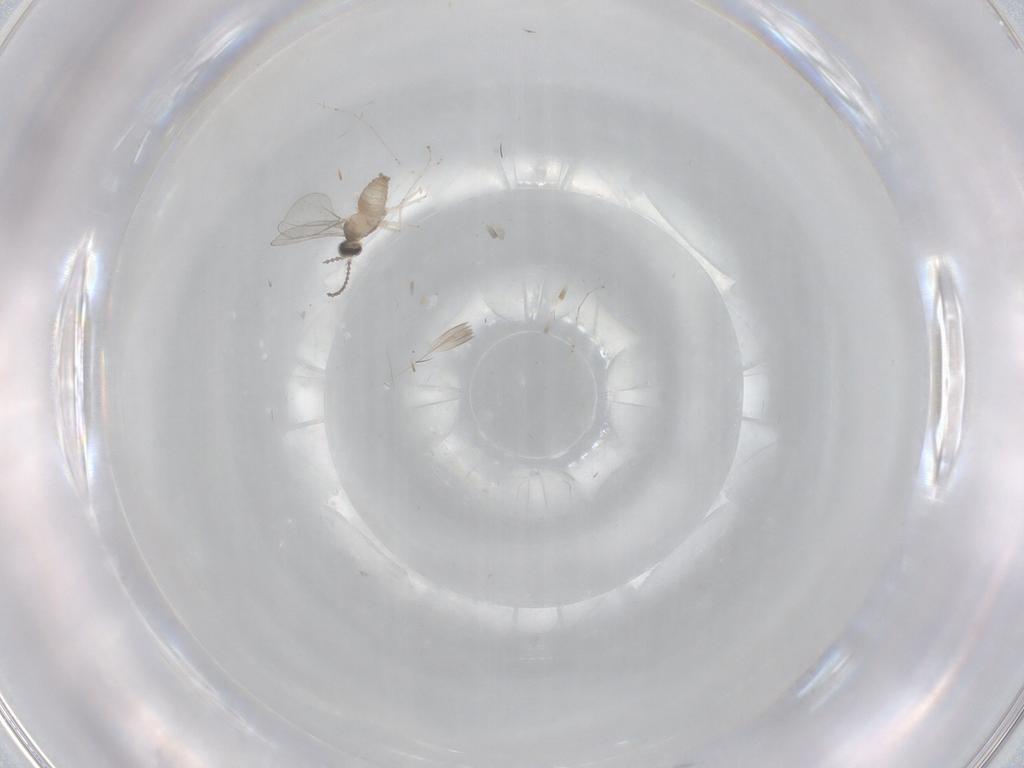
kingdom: Animalia
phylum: Arthropoda
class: Insecta
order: Diptera
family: Cecidomyiidae
